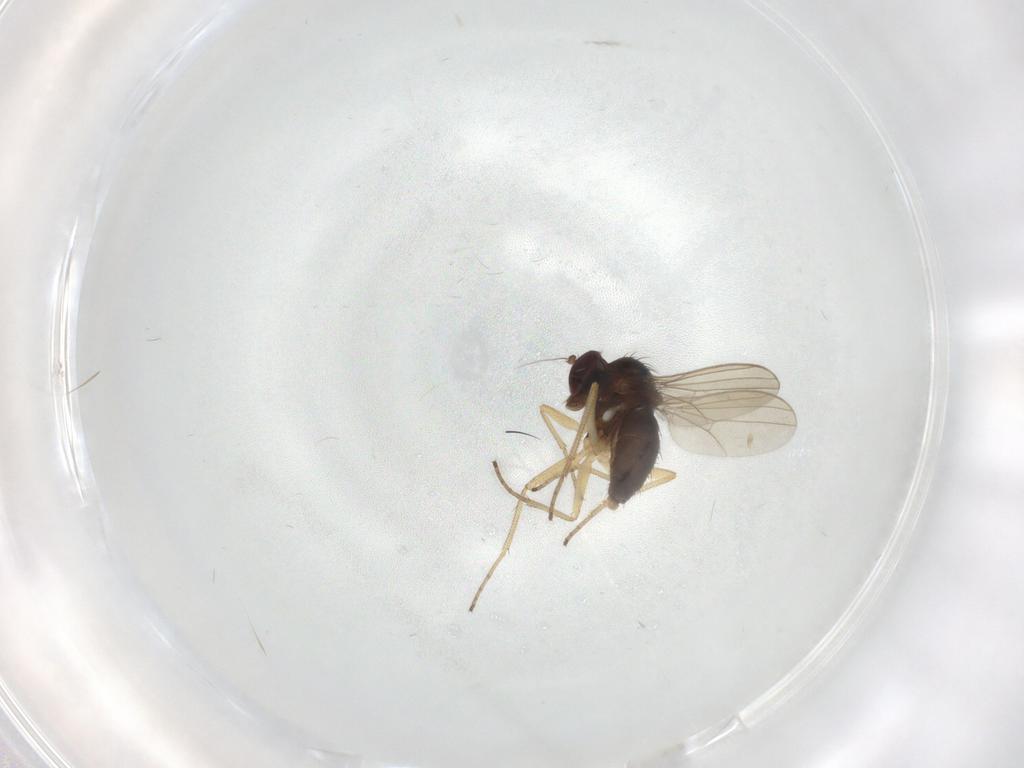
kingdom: Animalia
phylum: Arthropoda
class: Insecta
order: Diptera
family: Dolichopodidae
